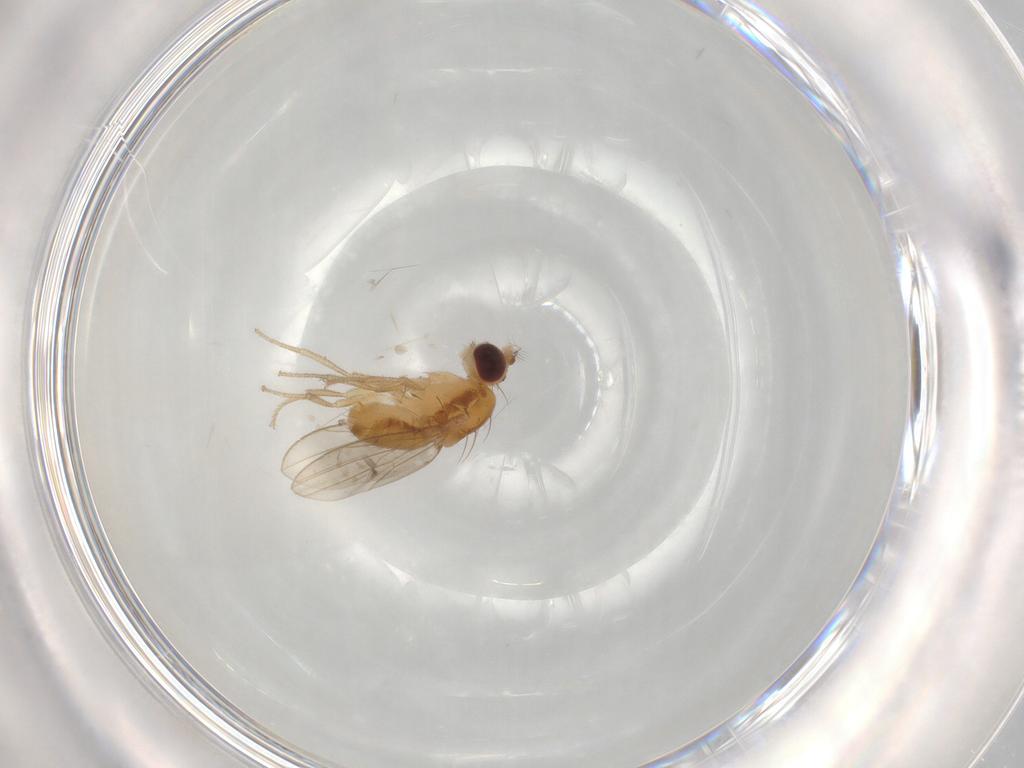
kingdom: Animalia
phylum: Arthropoda
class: Insecta
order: Diptera
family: Drosophilidae
